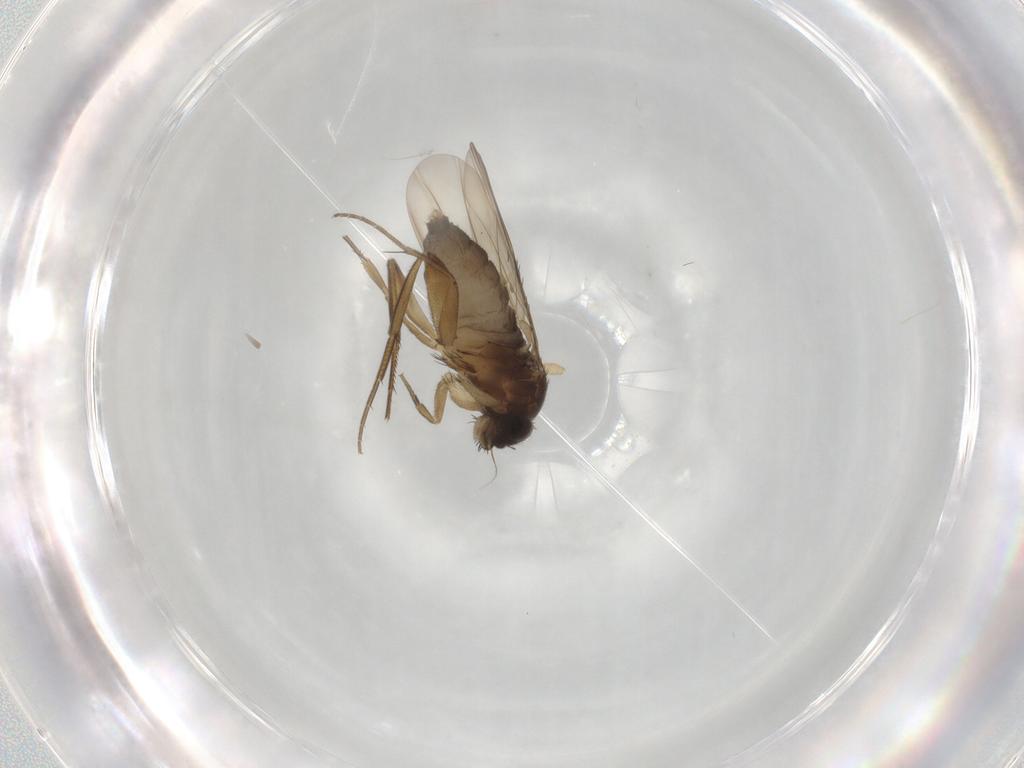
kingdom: Animalia
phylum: Arthropoda
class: Insecta
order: Diptera
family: Phoridae
